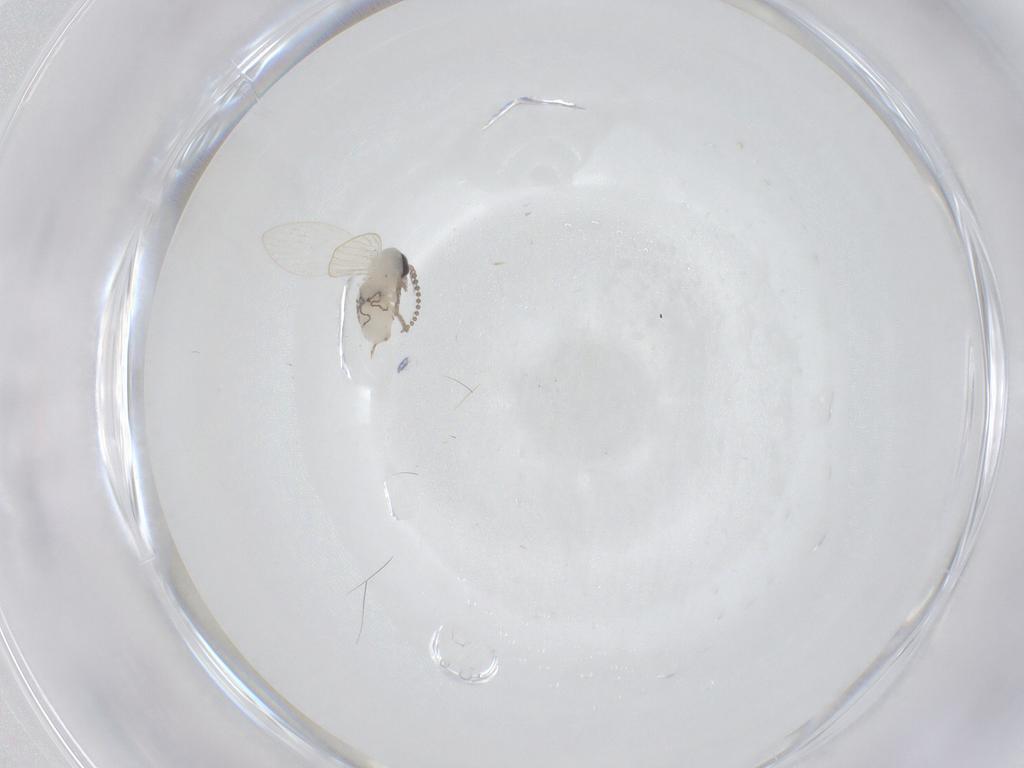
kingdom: Animalia
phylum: Arthropoda
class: Insecta
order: Diptera
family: Psychodidae
